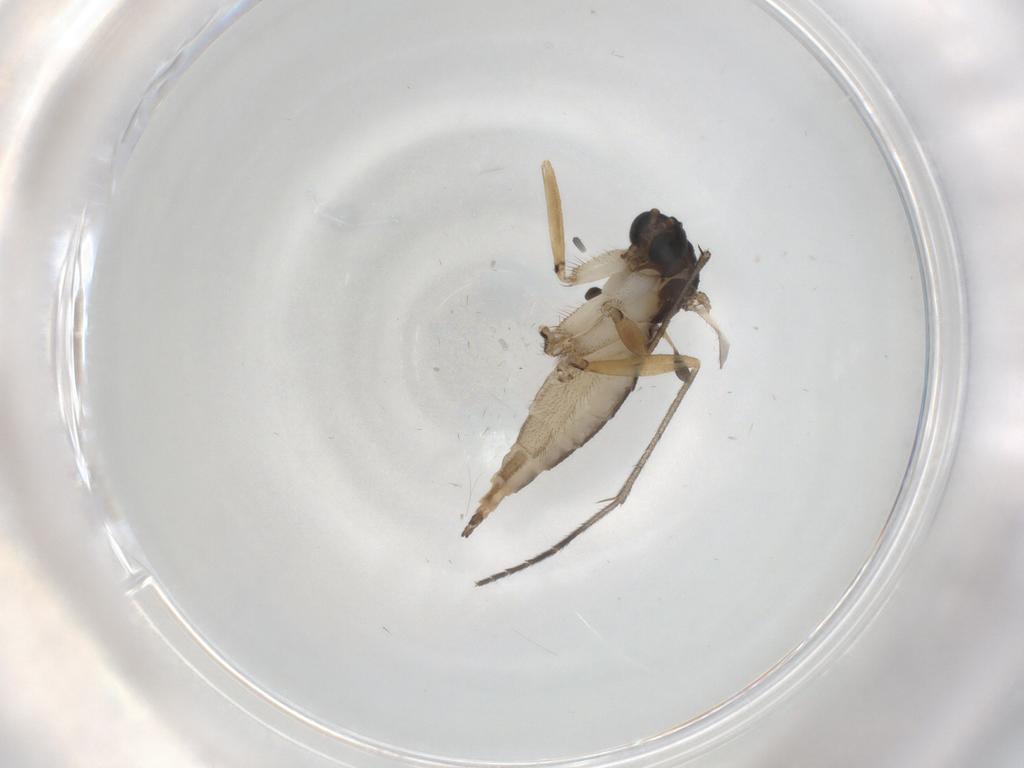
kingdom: Animalia
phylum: Arthropoda
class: Insecta
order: Diptera
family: Sciaridae
